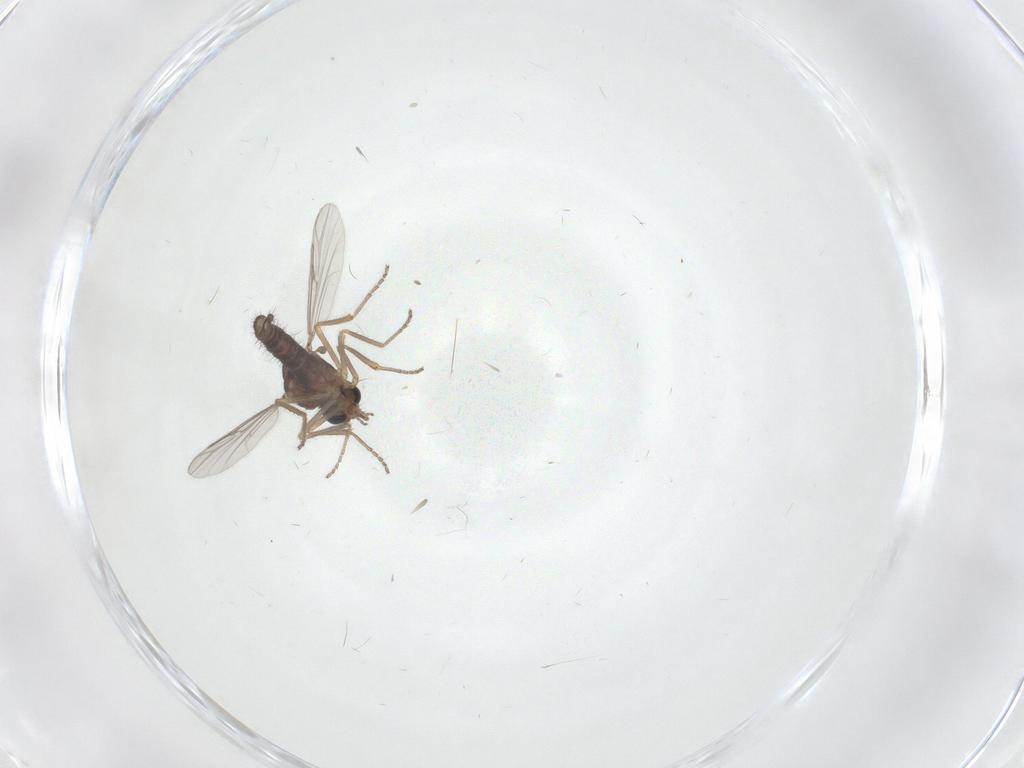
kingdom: Animalia
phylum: Arthropoda
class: Insecta
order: Diptera
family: Ceratopogonidae
